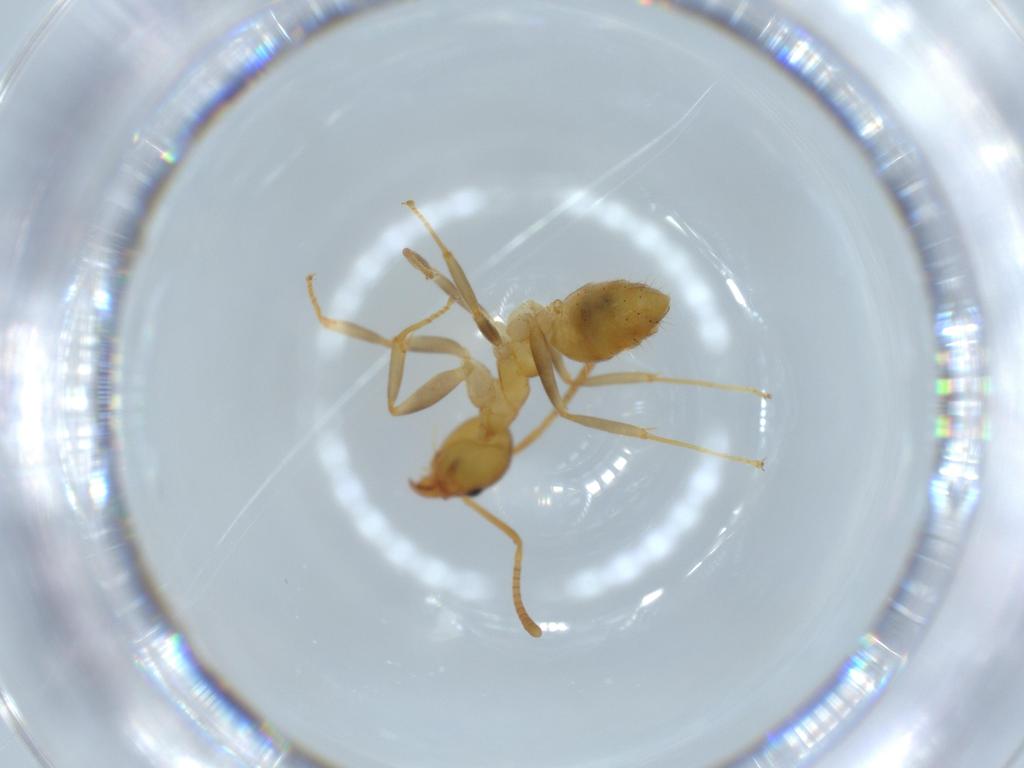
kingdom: Animalia
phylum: Arthropoda
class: Insecta
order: Hymenoptera
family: Formicidae
